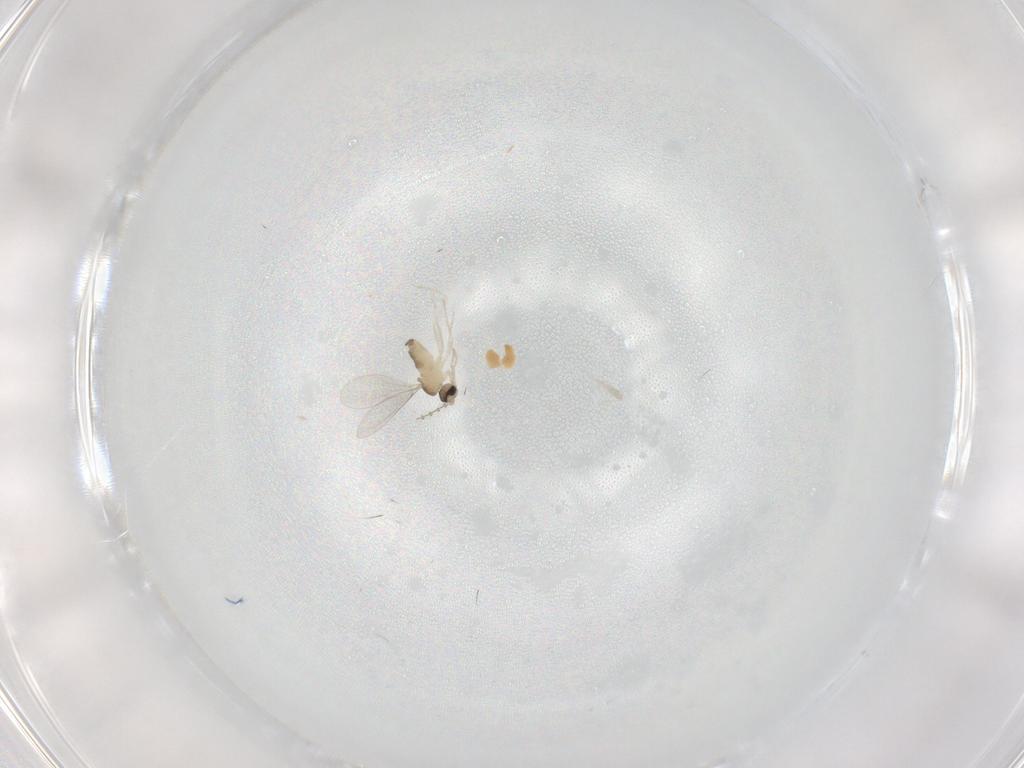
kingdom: Animalia
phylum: Arthropoda
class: Insecta
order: Diptera
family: Cecidomyiidae
